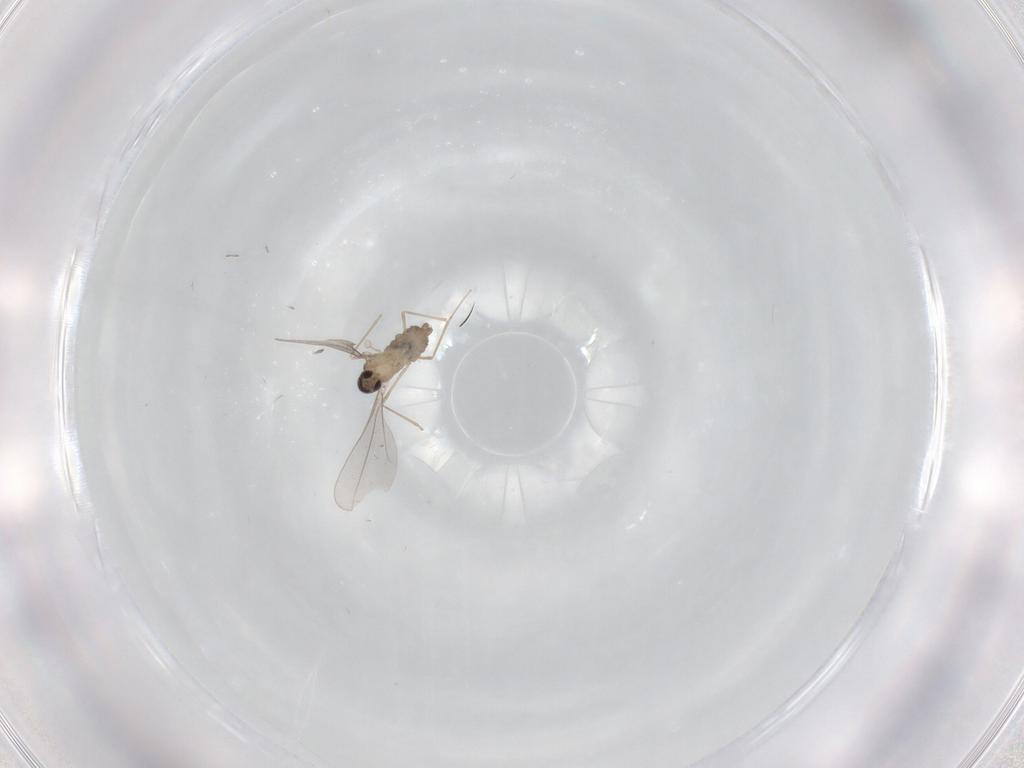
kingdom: Animalia
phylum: Arthropoda
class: Insecta
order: Diptera
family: Cecidomyiidae
